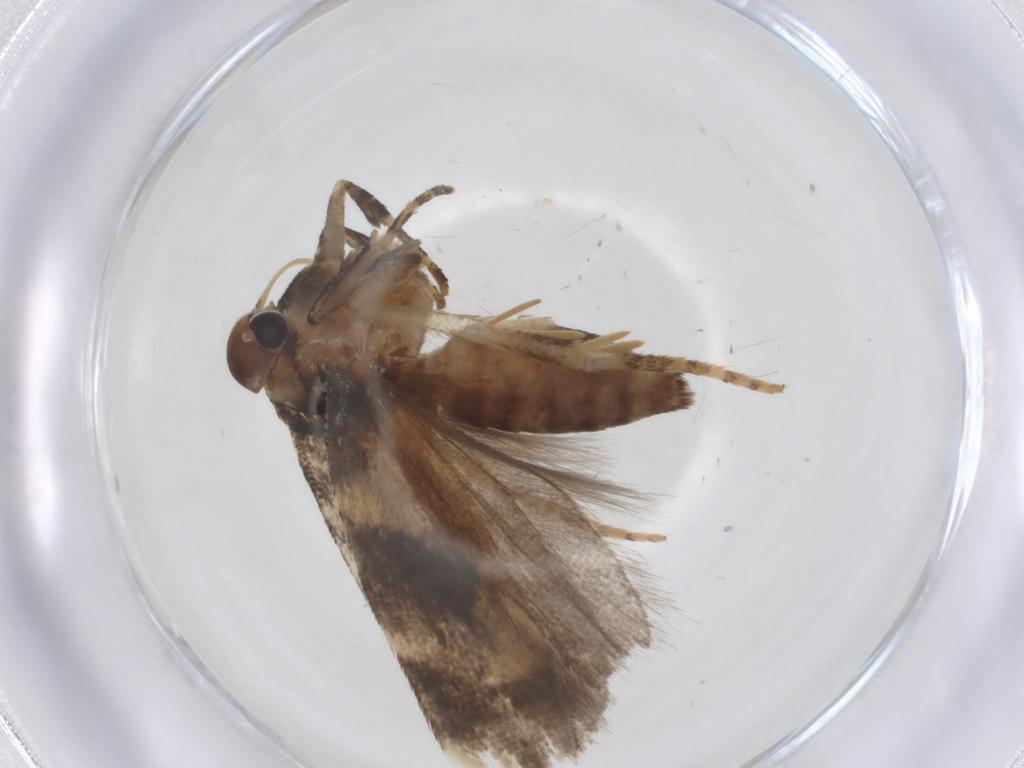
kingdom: Animalia
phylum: Arthropoda
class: Insecta
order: Lepidoptera
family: Gelechiidae
